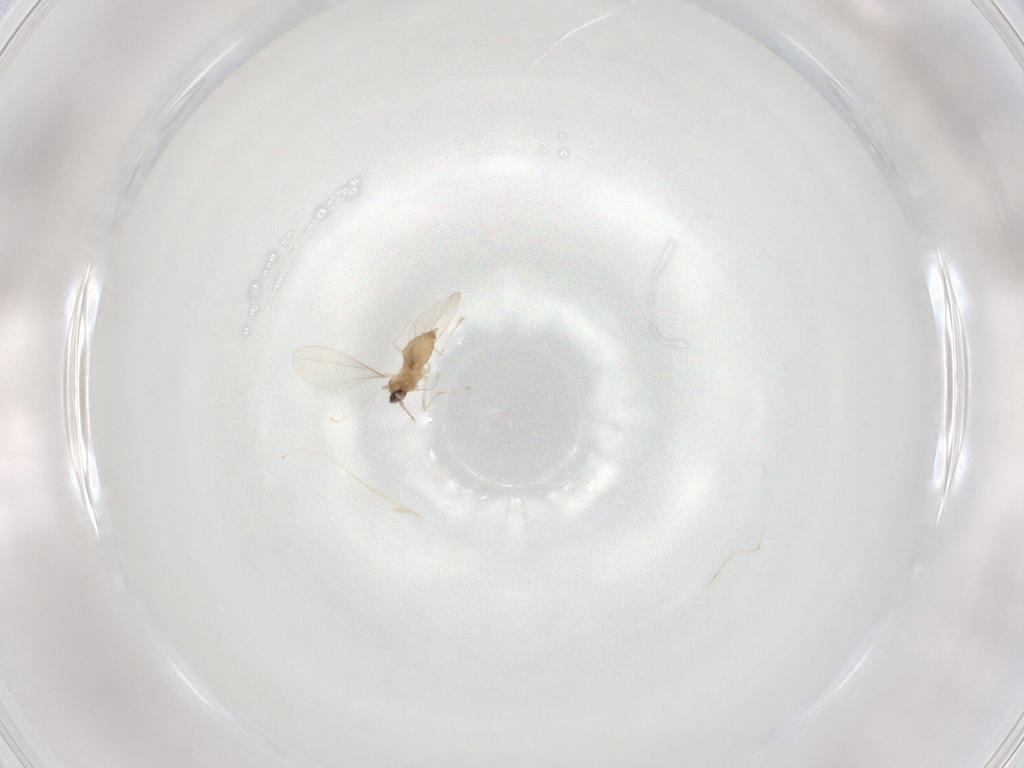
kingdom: Animalia
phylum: Arthropoda
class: Insecta
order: Diptera
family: Cecidomyiidae
